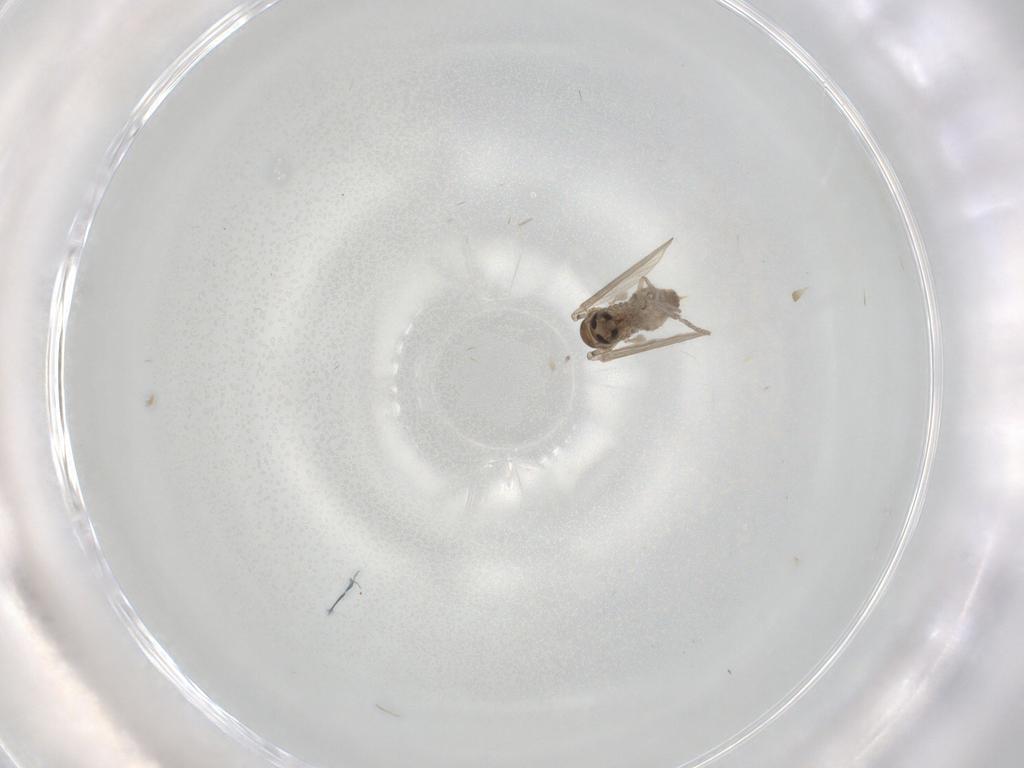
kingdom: Animalia
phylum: Arthropoda
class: Insecta
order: Diptera
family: Psychodidae
